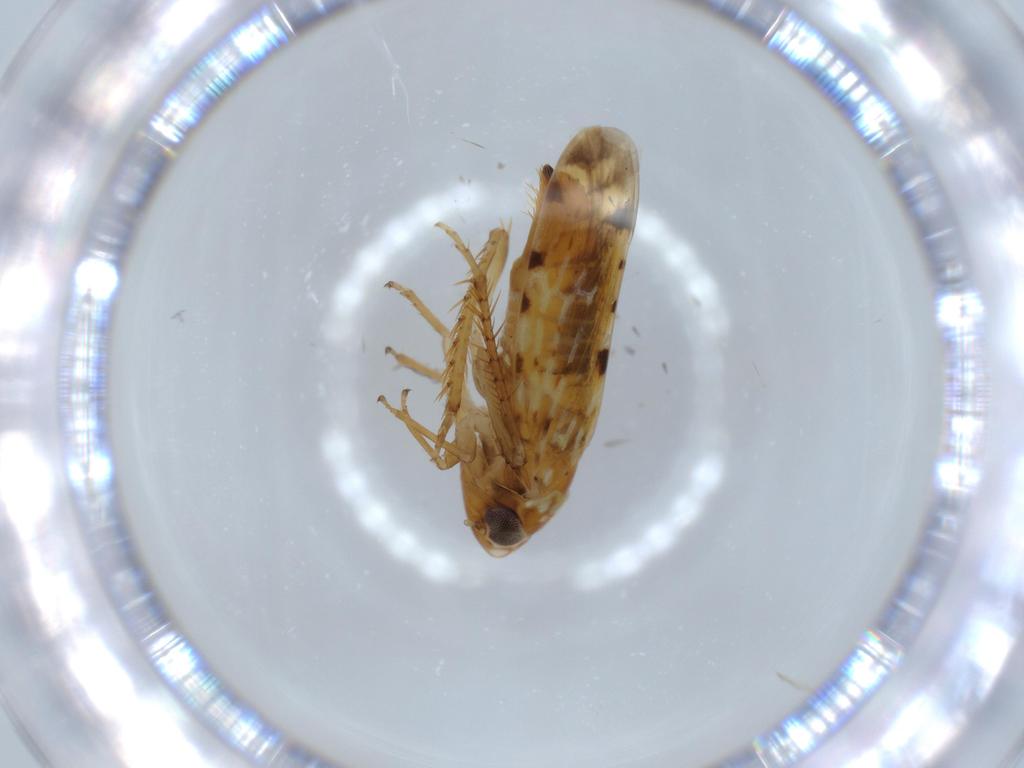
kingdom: Animalia
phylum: Arthropoda
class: Insecta
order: Hemiptera
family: Cicadellidae
